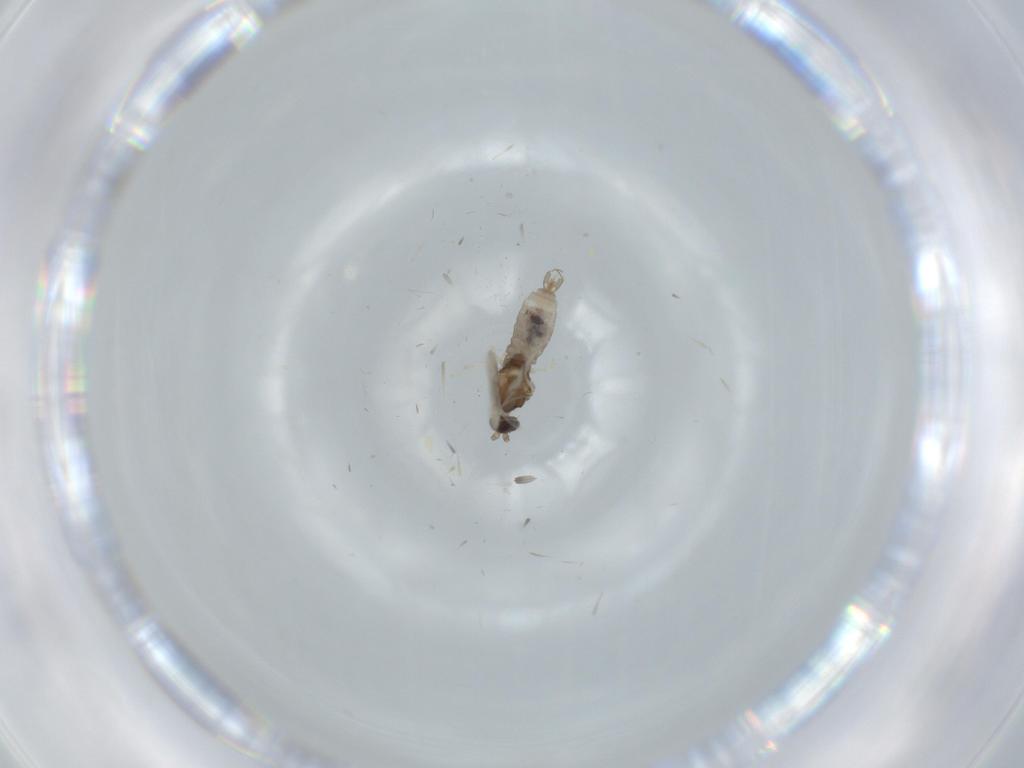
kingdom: Animalia
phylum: Arthropoda
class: Insecta
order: Diptera
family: Cecidomyiidae
